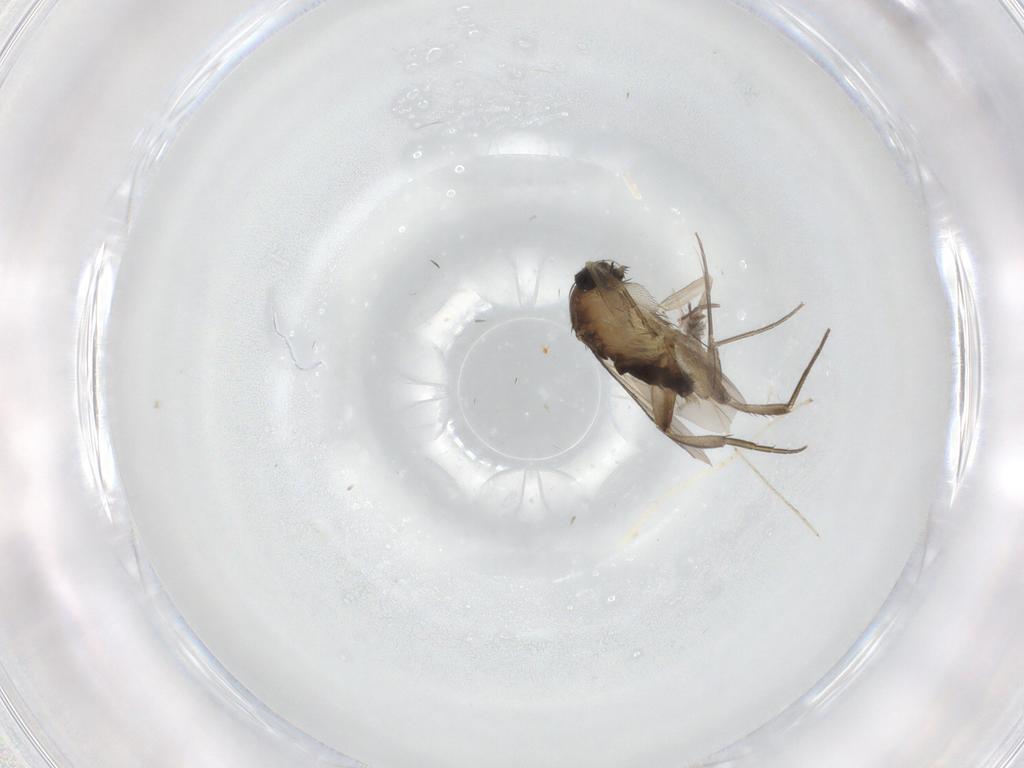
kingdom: Animalia
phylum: Arthropoda
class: Insecta
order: Diptera
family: Phoridae
